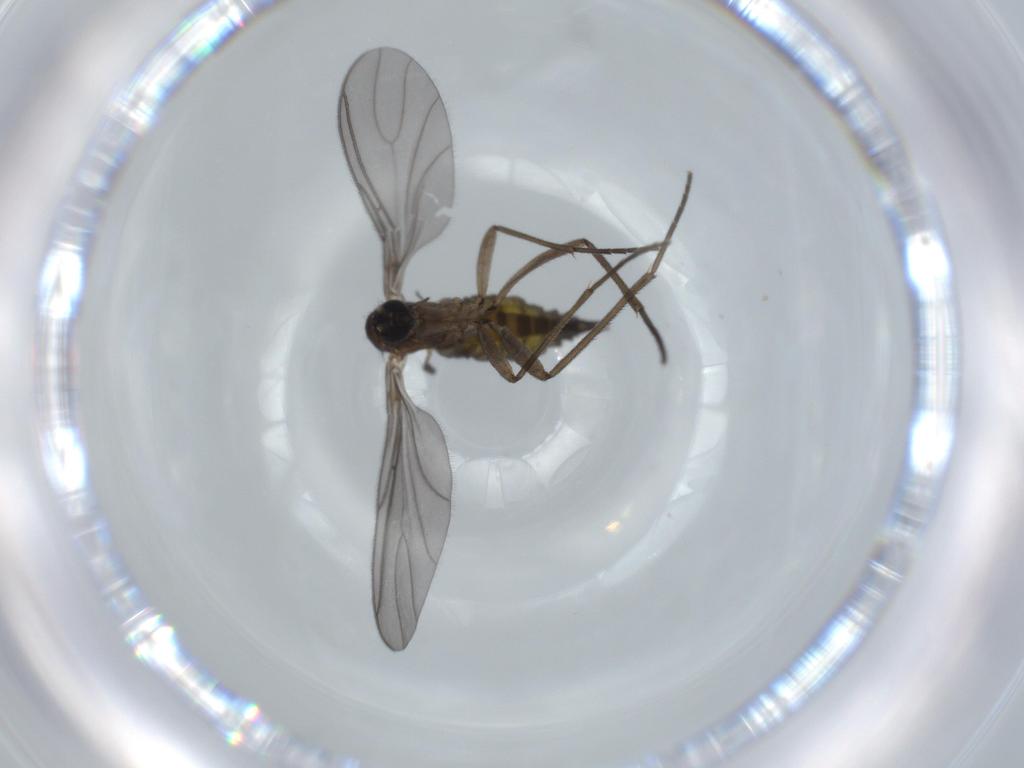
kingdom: Animalia
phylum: Arthropoda
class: Insecta
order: Diptera
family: Sciaridae
